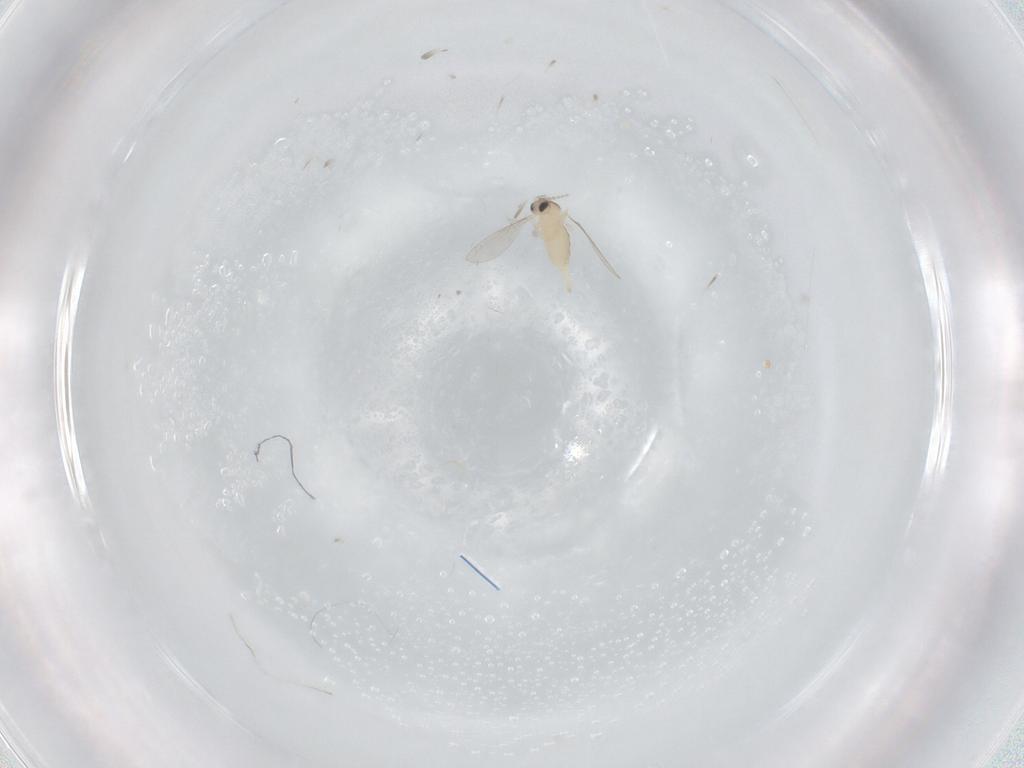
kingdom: Animalia
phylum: Arthropoda
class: Insecta
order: Diptera
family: Cecidomyiidae
